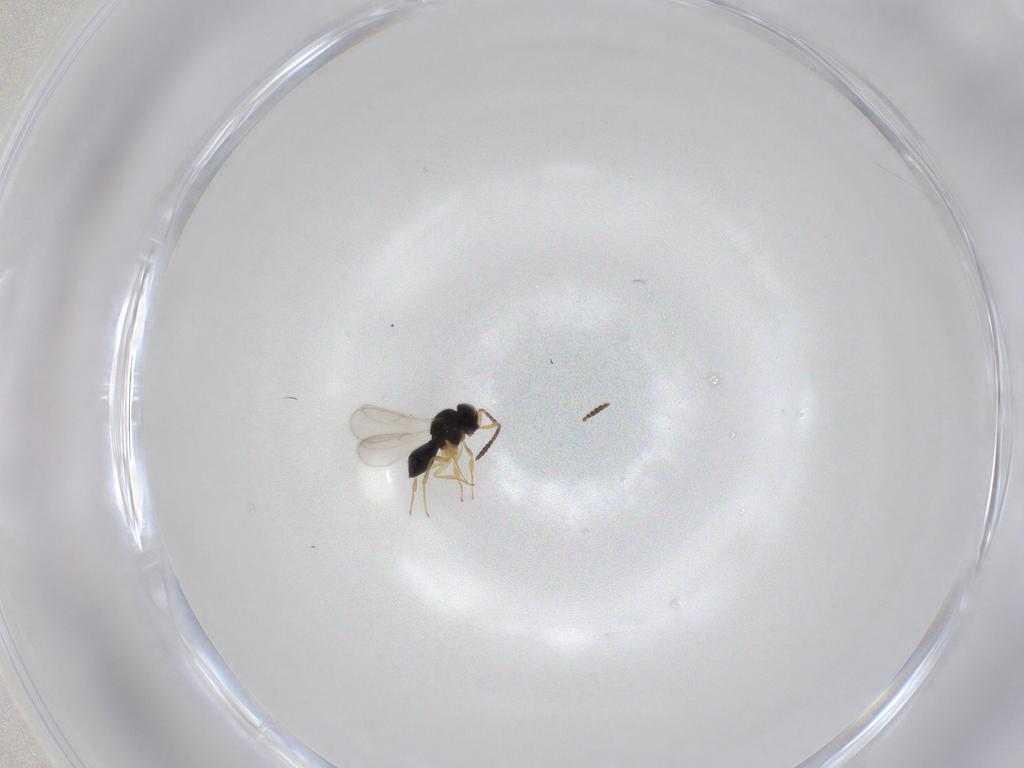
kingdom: Animalia
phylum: Arthropoda
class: Insecta
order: Hymenoptera
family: Scelionidae
